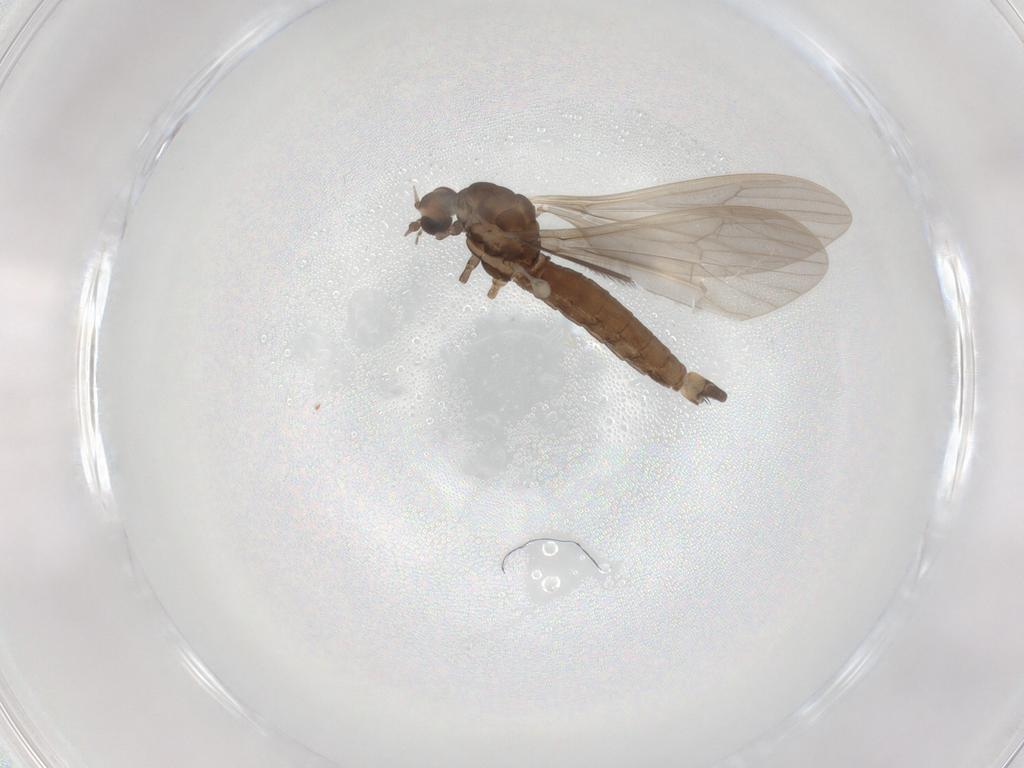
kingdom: Animalia
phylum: Arthropoda
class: Insecta
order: Diptera
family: Limoniidae
